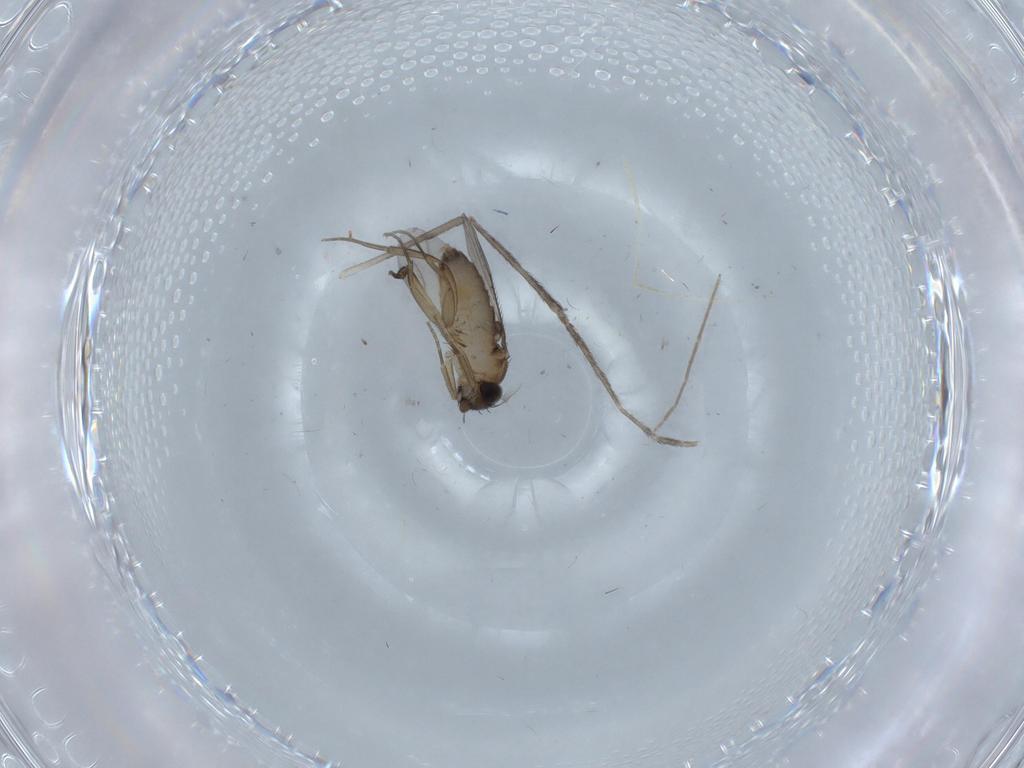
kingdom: Animalia
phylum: Arthropoda
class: Insecta
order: Diptera
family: Phoridae
